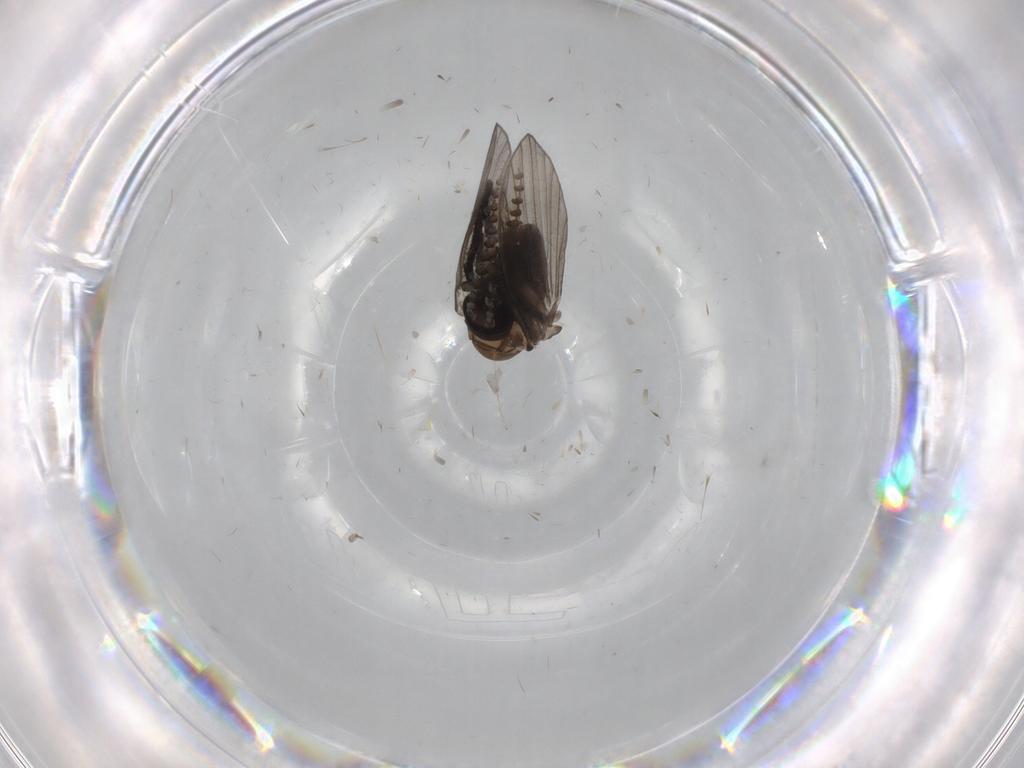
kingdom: Animalia
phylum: Arthropoda
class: Insecta
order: Diptera
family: Psychodidae
